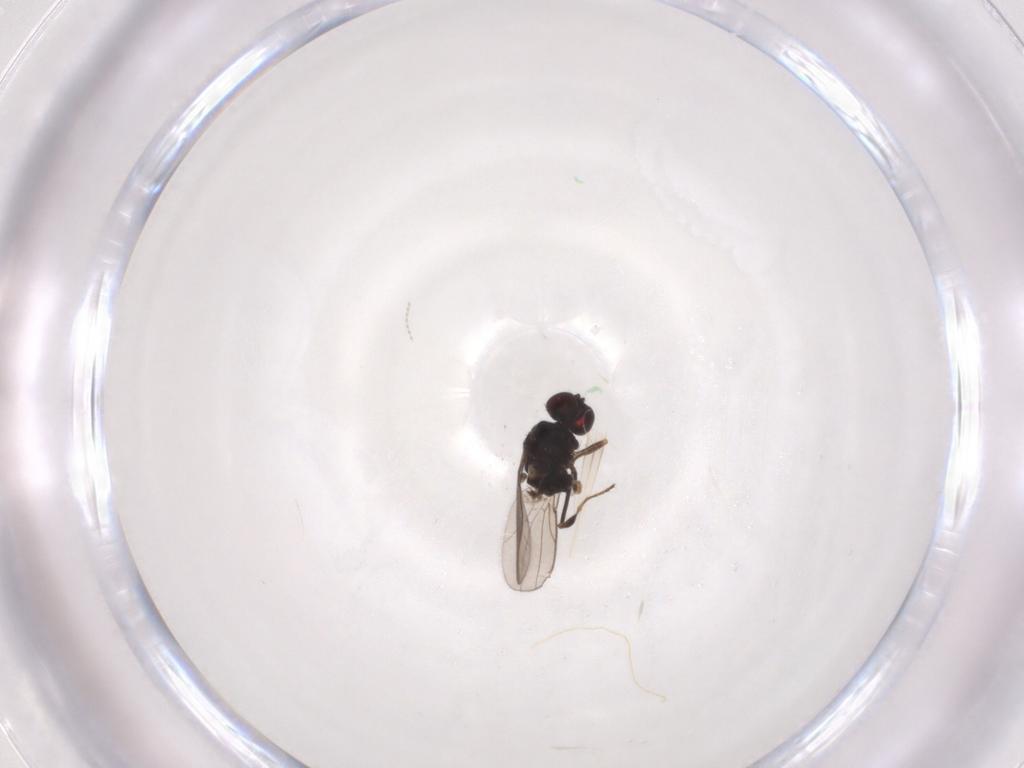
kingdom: Animalia
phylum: Arthropoda
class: Insecta
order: Diptera
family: Chloropidae
